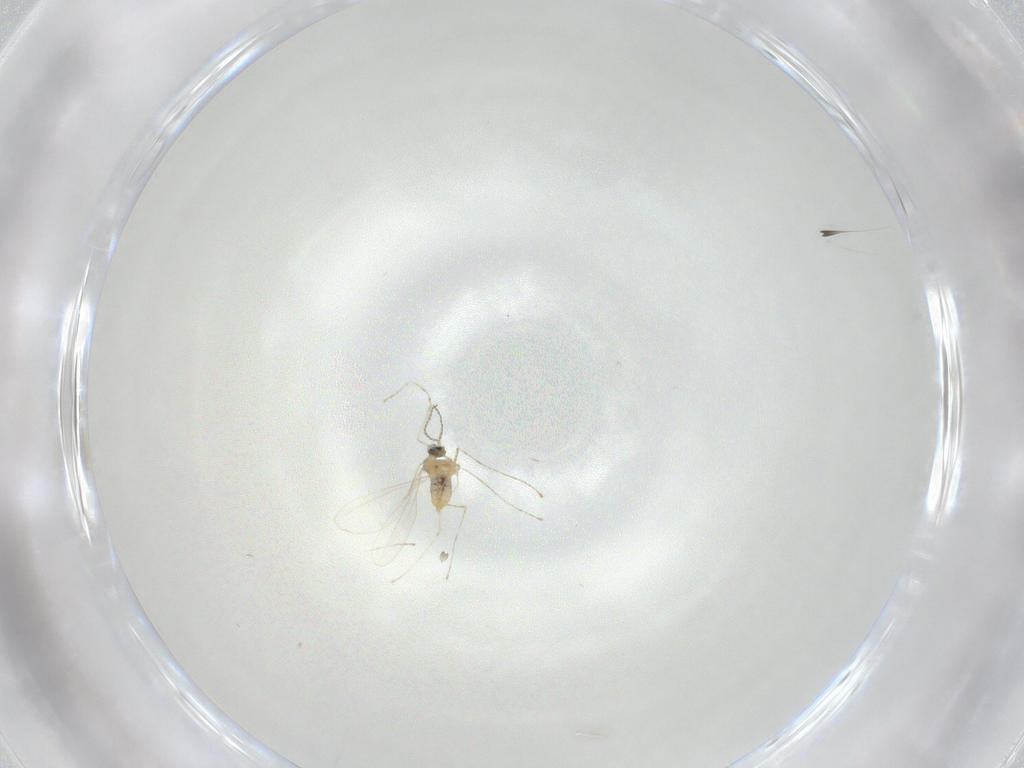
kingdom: Animalia
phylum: Arthropoda
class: Insecta
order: Diptera
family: Cecidomyiidae
